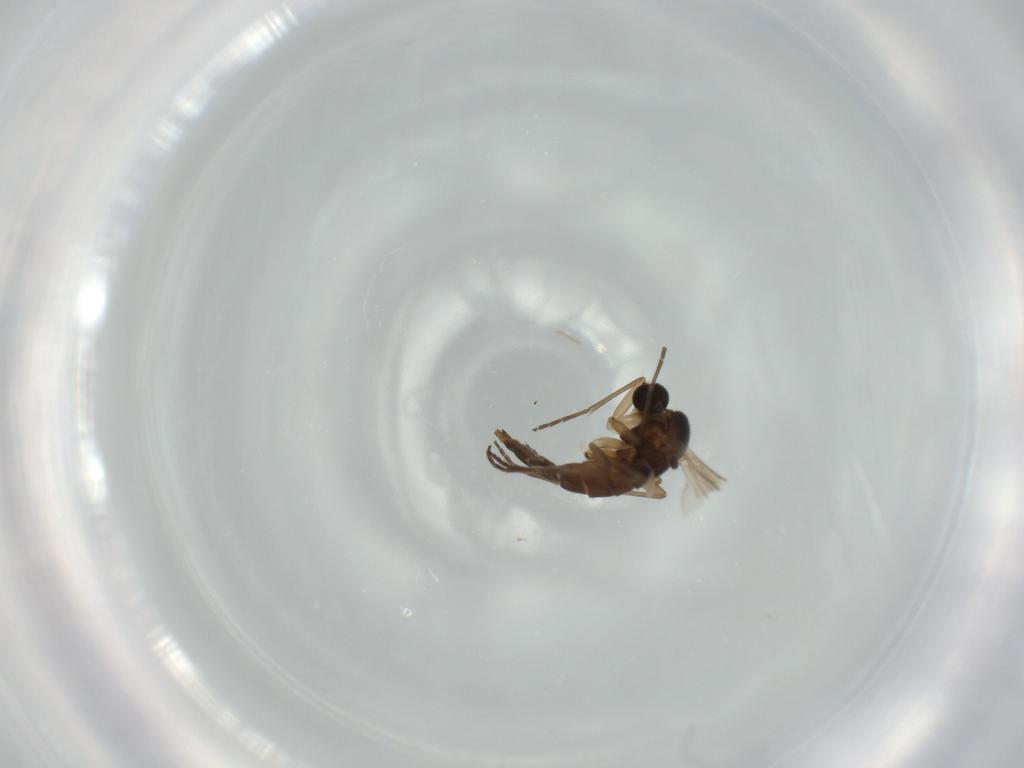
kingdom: Animalia
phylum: Arthropoda
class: Insecta
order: Diptera
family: Sciaridae
